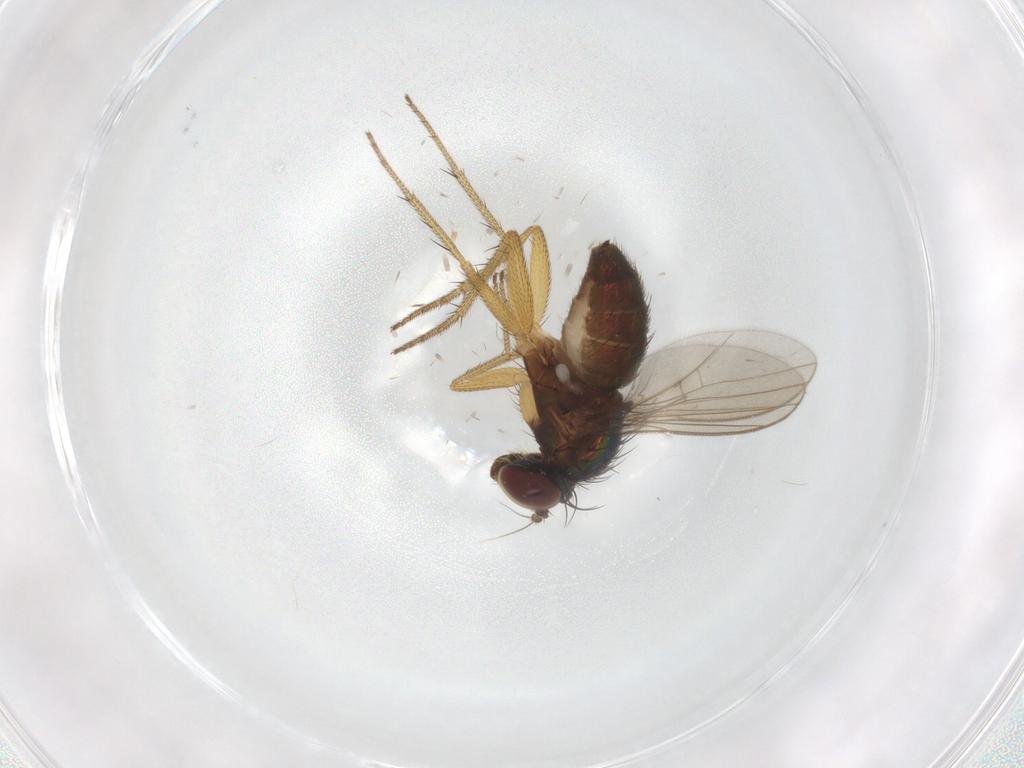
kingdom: Animalia
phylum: Arthropoda
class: Insecta
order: Diptera
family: Dolichopodidae
